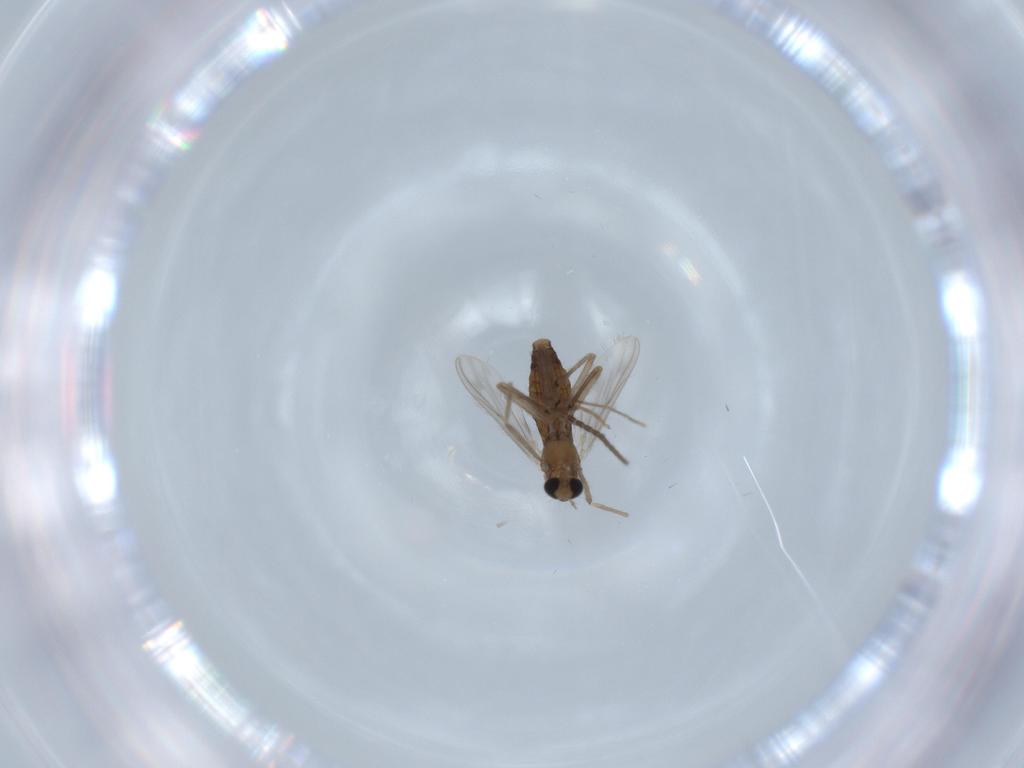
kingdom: Animalia
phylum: Arthropoda
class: Insecta
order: Diptera
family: Chironomidae
